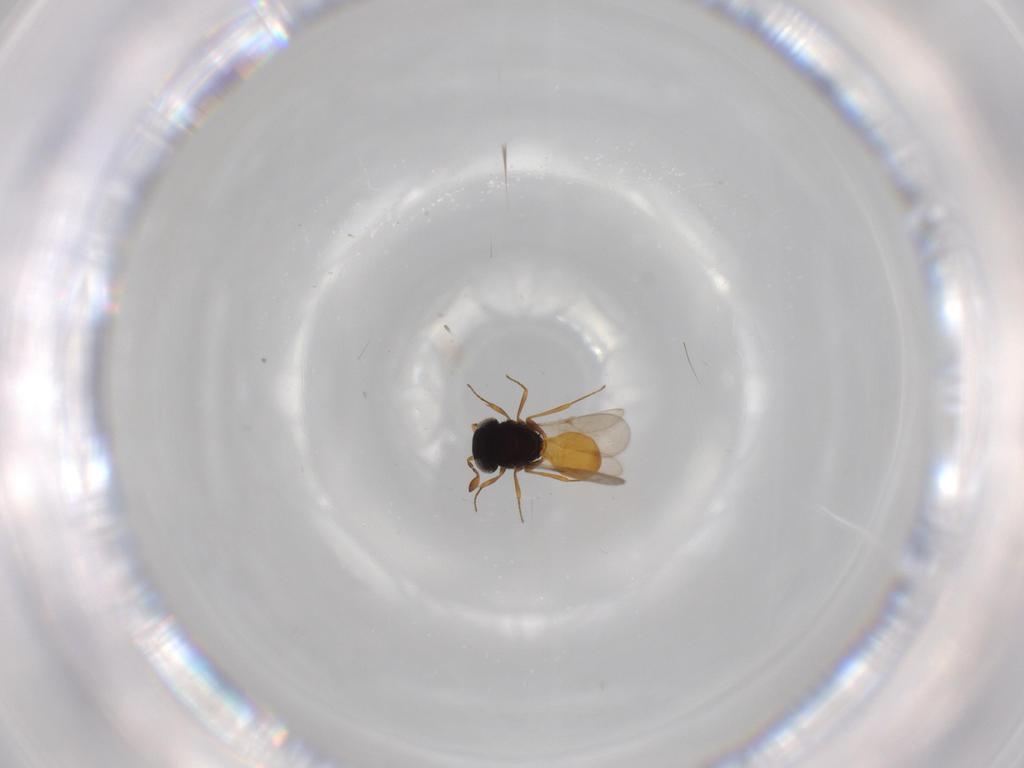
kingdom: Animalia
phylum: Arthropoda
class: Insecta
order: Hymenoptera
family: Scelionidae
